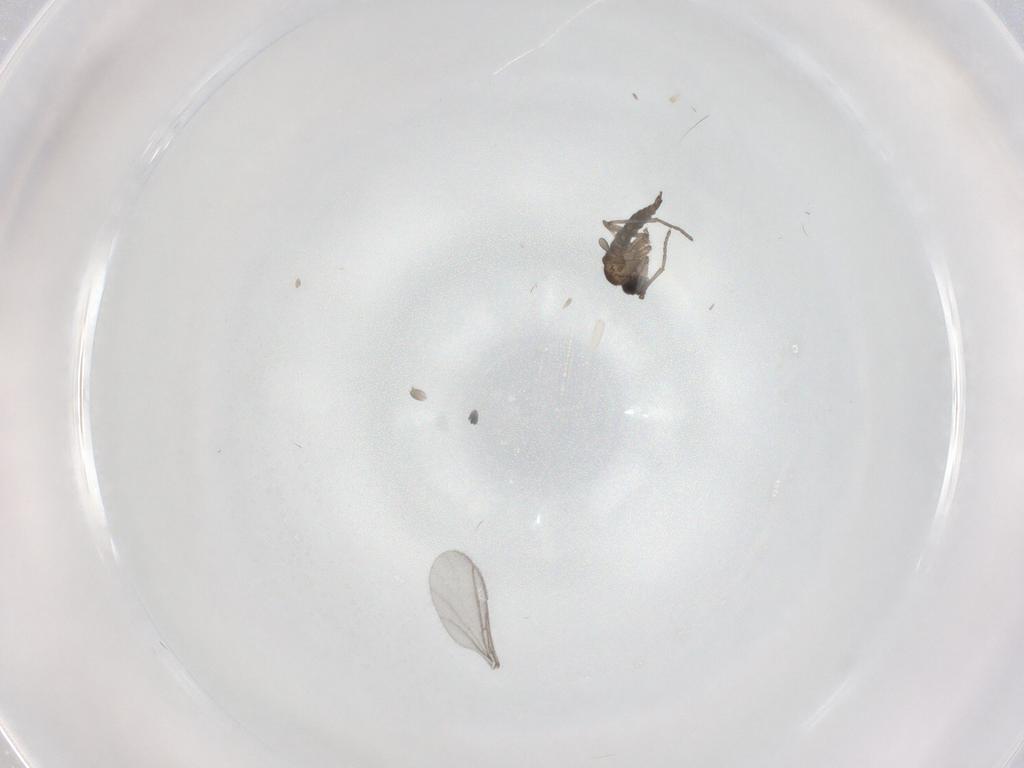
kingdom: Animalia
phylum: Arthropoda
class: Insecta
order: Diptera
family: Sciaridae
